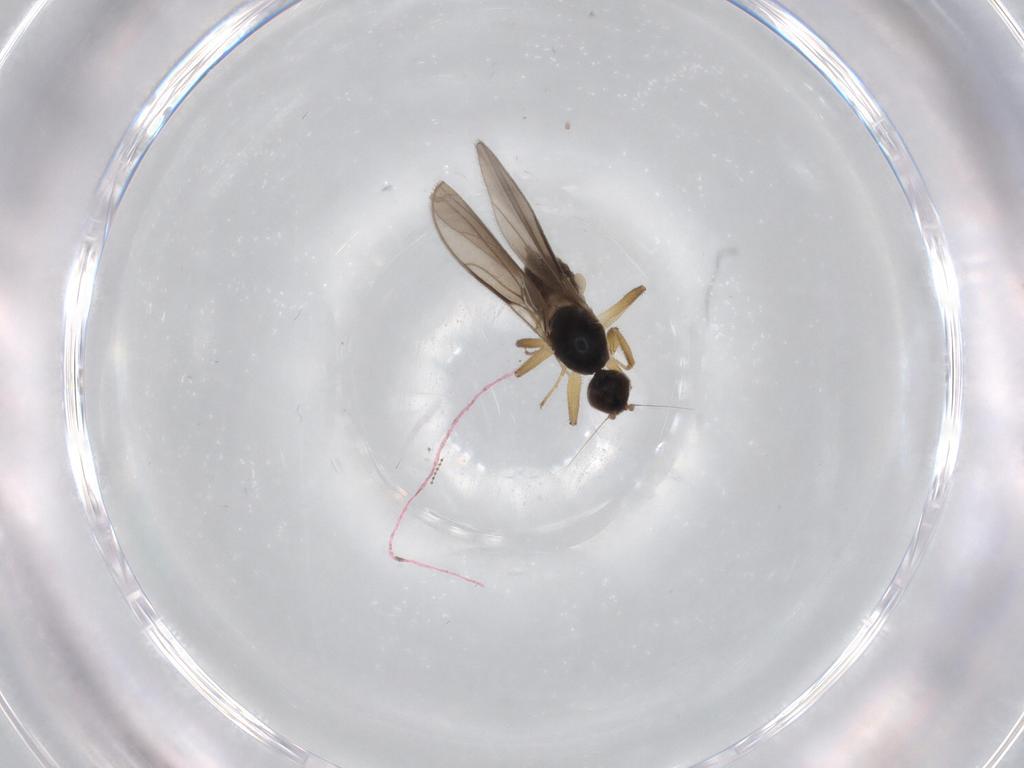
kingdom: Animalia
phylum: Arthropoda
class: Insecta
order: Diptera
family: Hybotidae
